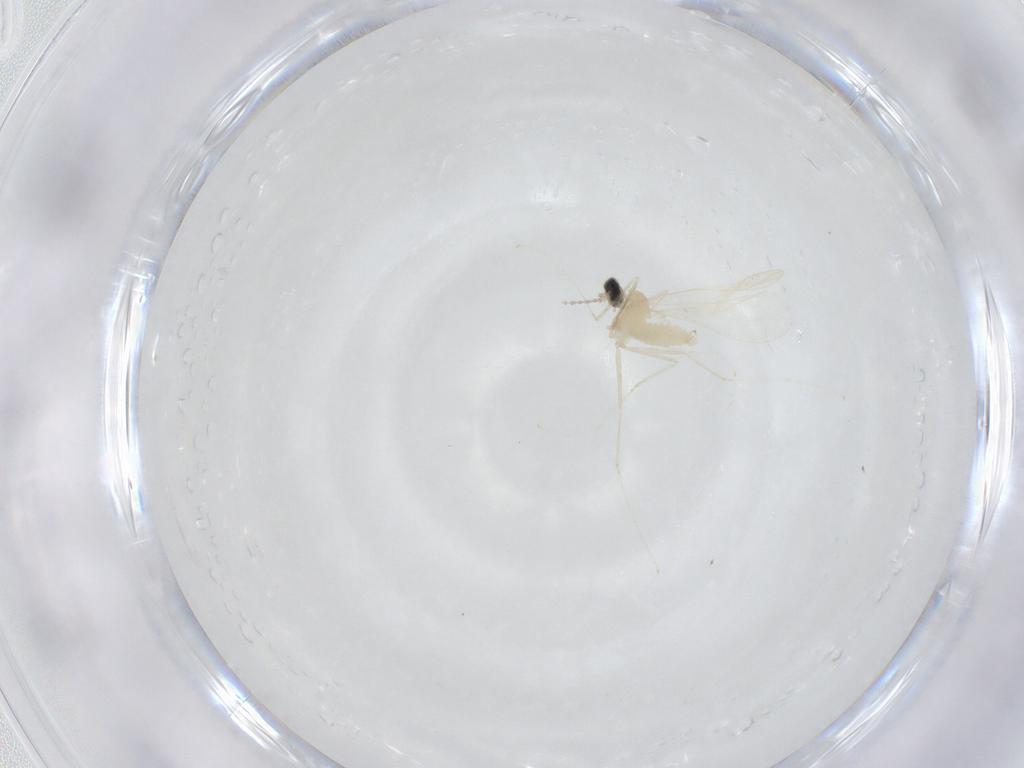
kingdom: Animalia
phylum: Arthropoda
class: Insecta
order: Diptera
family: Cecidomyiidae
